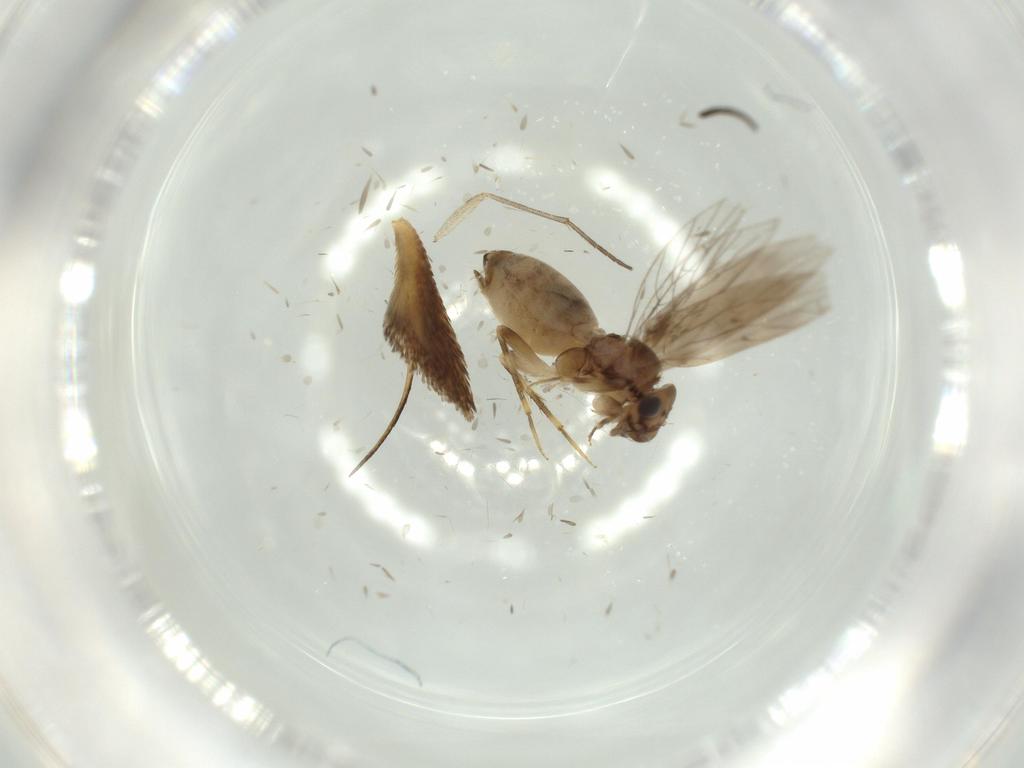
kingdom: Animalia
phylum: Arthropoda
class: Insecta
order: Psocodea
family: Lepidopsocidae
